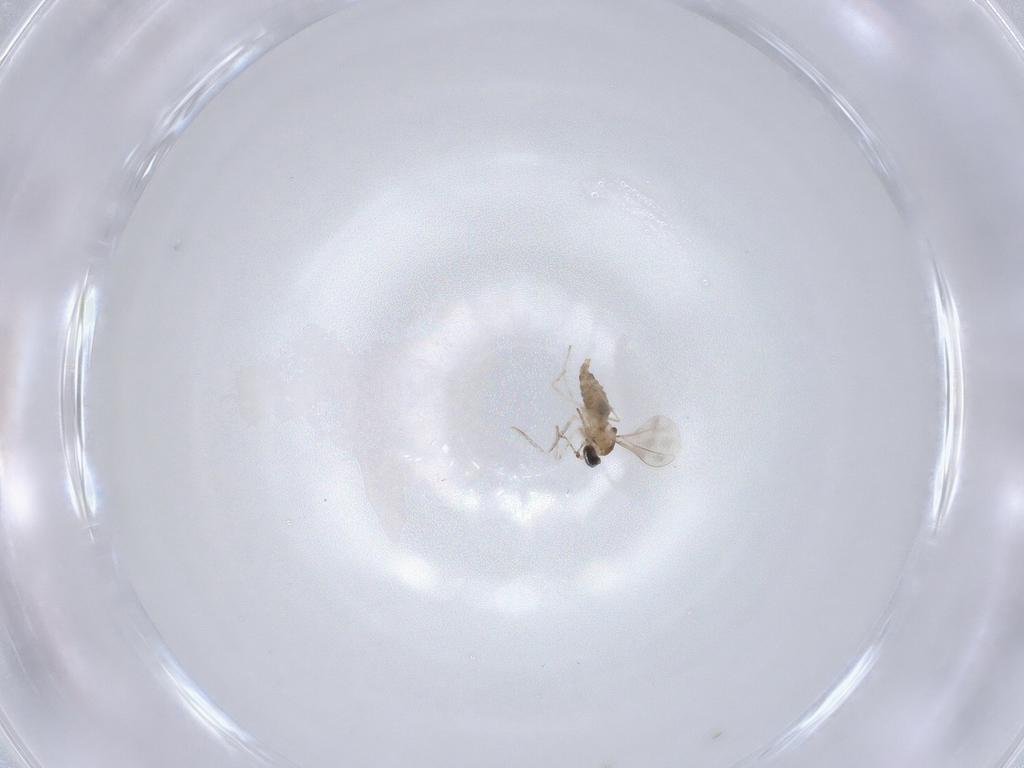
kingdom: Animalia
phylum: Arthropoda
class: Insecta
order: Diptera
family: Cecidomyiidae
